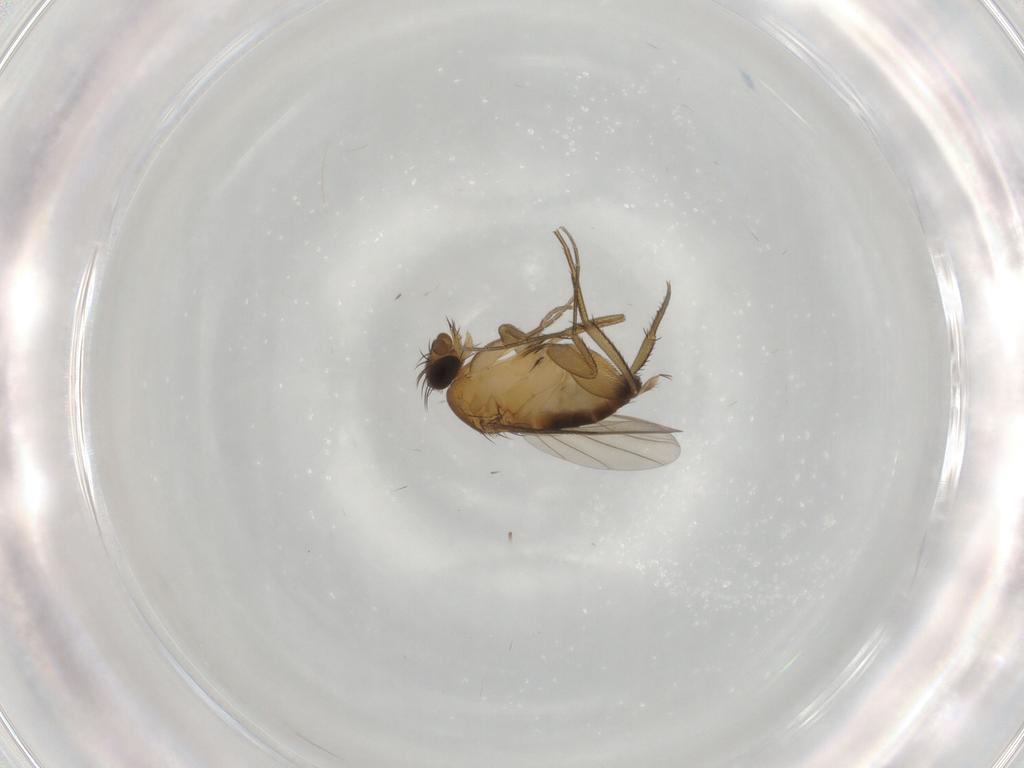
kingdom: Animalia
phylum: Arthropoda
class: Insecta
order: Diptera
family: Phoridae
